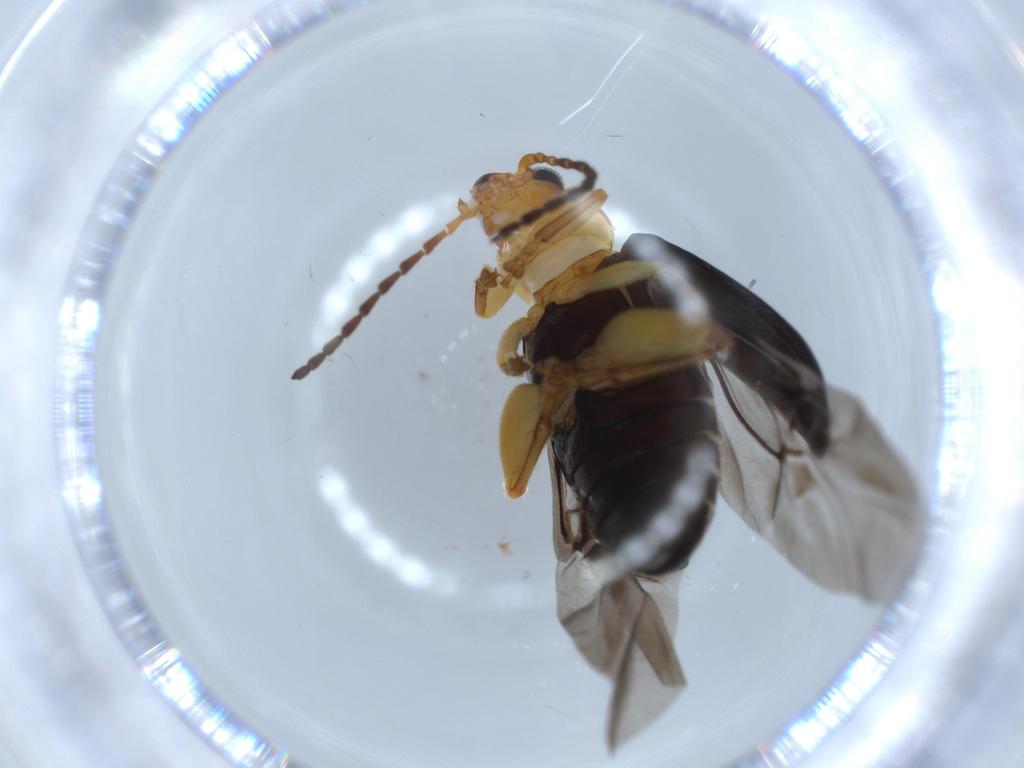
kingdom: Animalia
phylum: Arthropoda
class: Insecta
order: Coleoptera
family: Chrysomelidae
